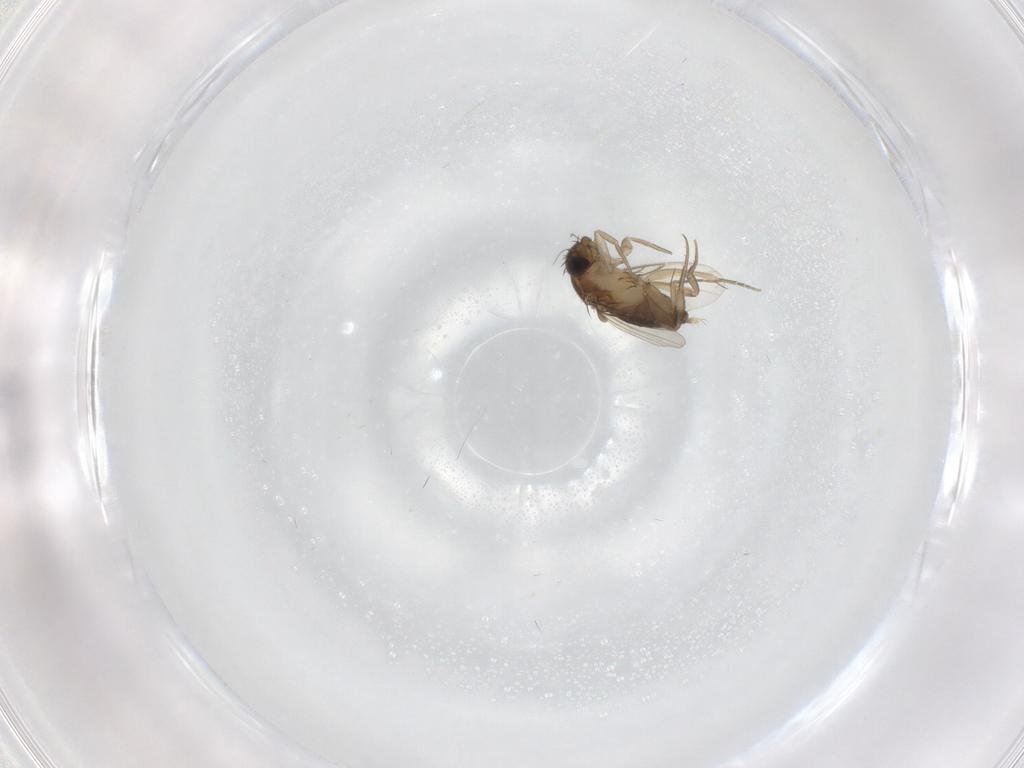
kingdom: Animalia
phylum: Arthropoda
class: Insecta
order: Diptera
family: Phoridae
